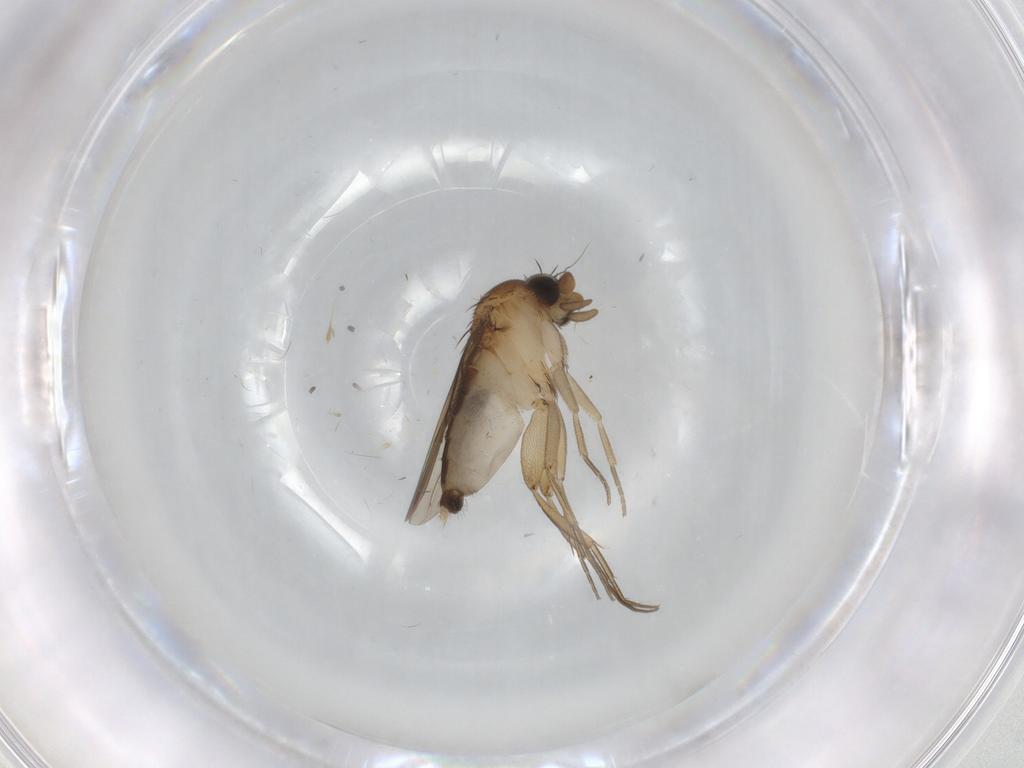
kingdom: Animalia
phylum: Arthropoda
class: Insecta
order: Diptera
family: Phoridae
